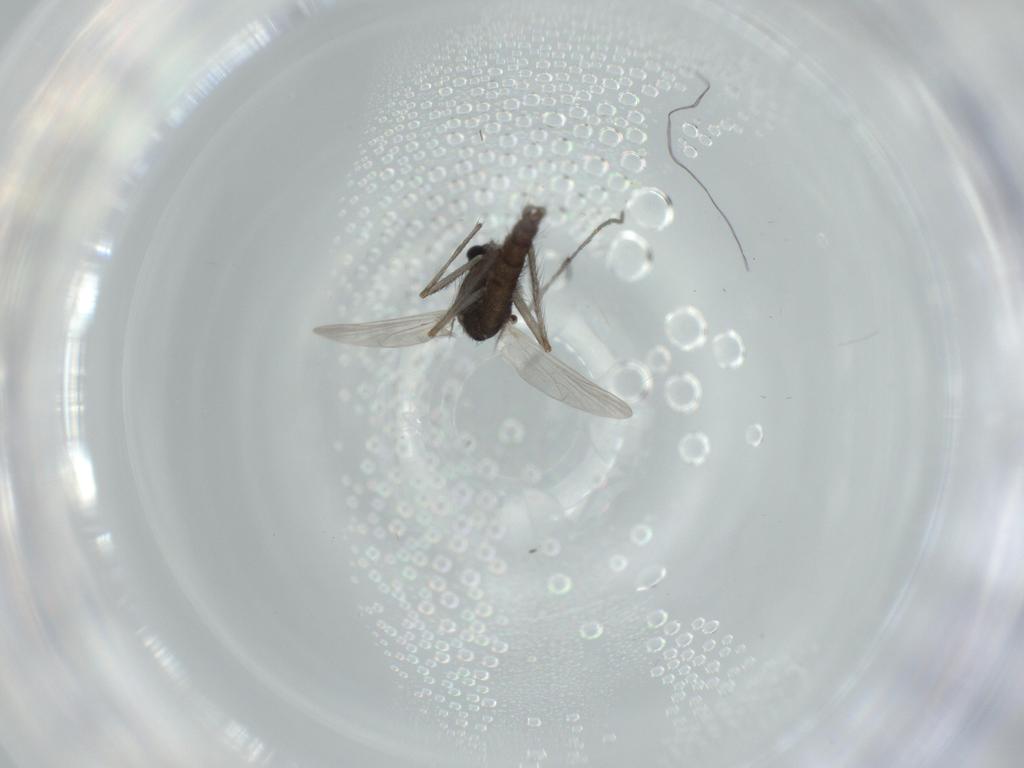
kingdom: Animalia
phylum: Arthropoda
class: Insecta
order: Diptera
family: Chironomidae
